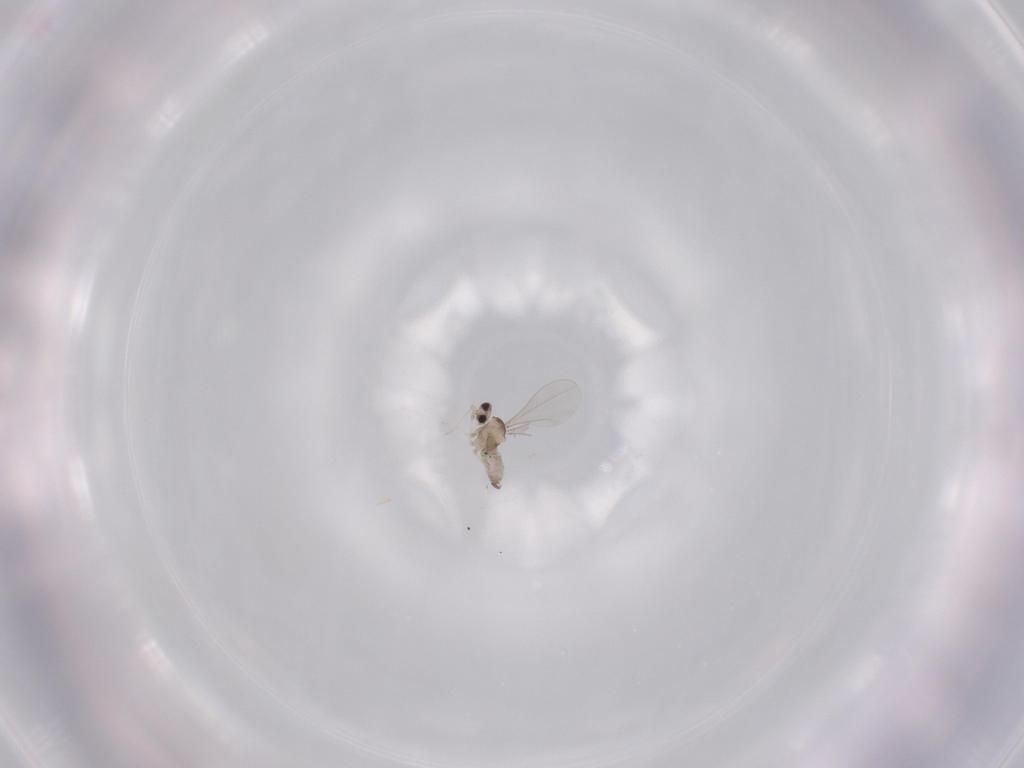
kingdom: Animalia
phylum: Arthropoda
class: Insecta
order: Diptera
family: Cecidomyiidae
